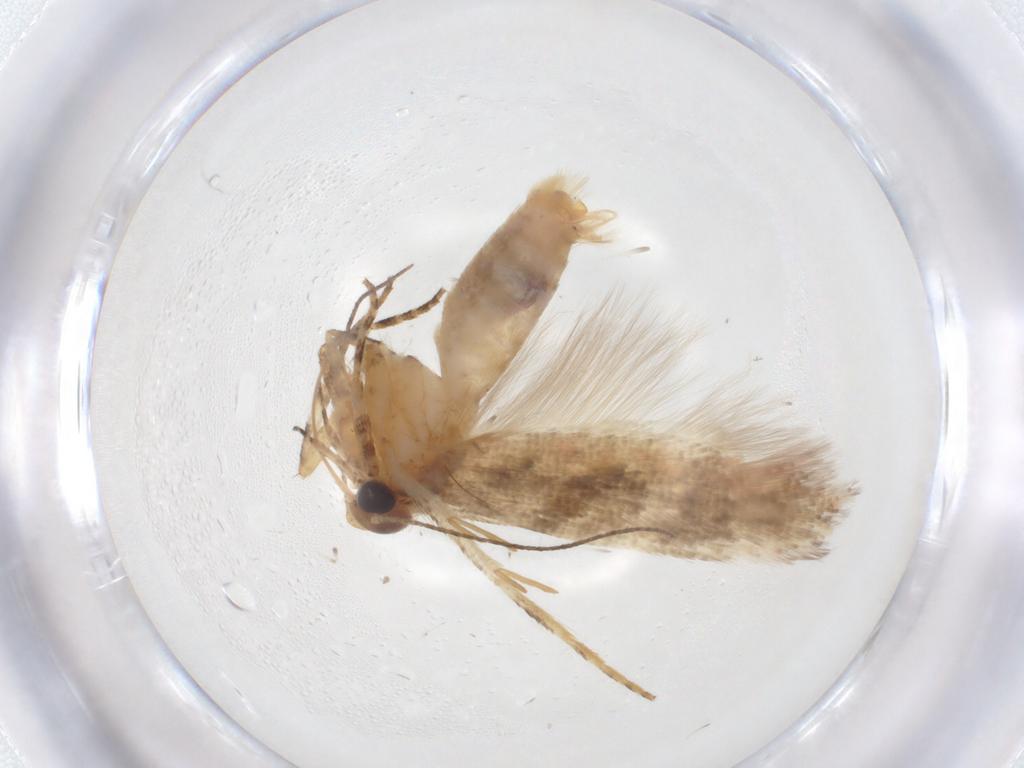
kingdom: Animalia
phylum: Arthropoda
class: Insecta
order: Lepidoptera
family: Gelechiidae
